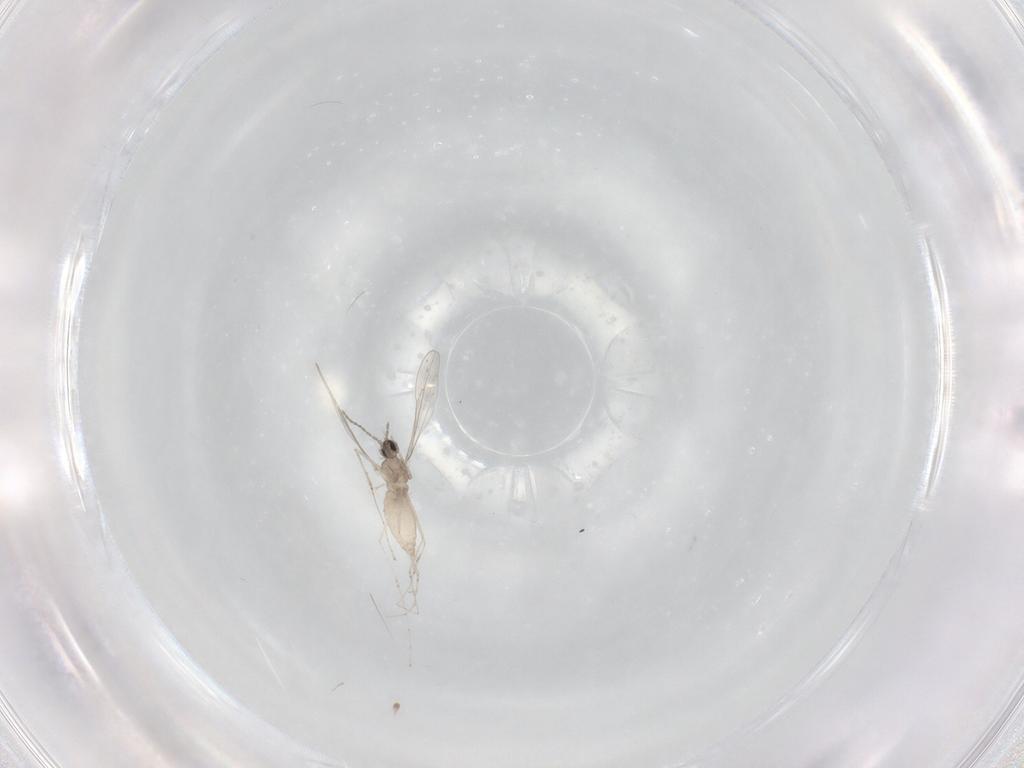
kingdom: Animalia
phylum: Arthropoda
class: Insecta
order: Diptera
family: Cecidomyiidae
